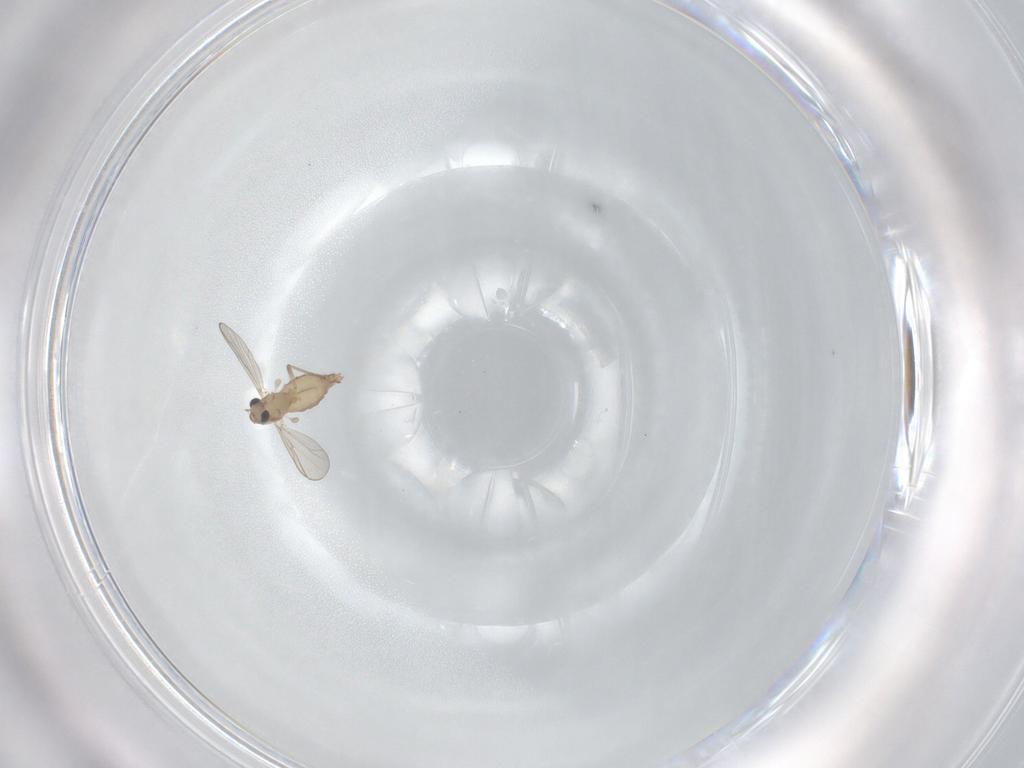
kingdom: Animalia
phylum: Arthropoda
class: Insecta
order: Diptera
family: Chironomidae
